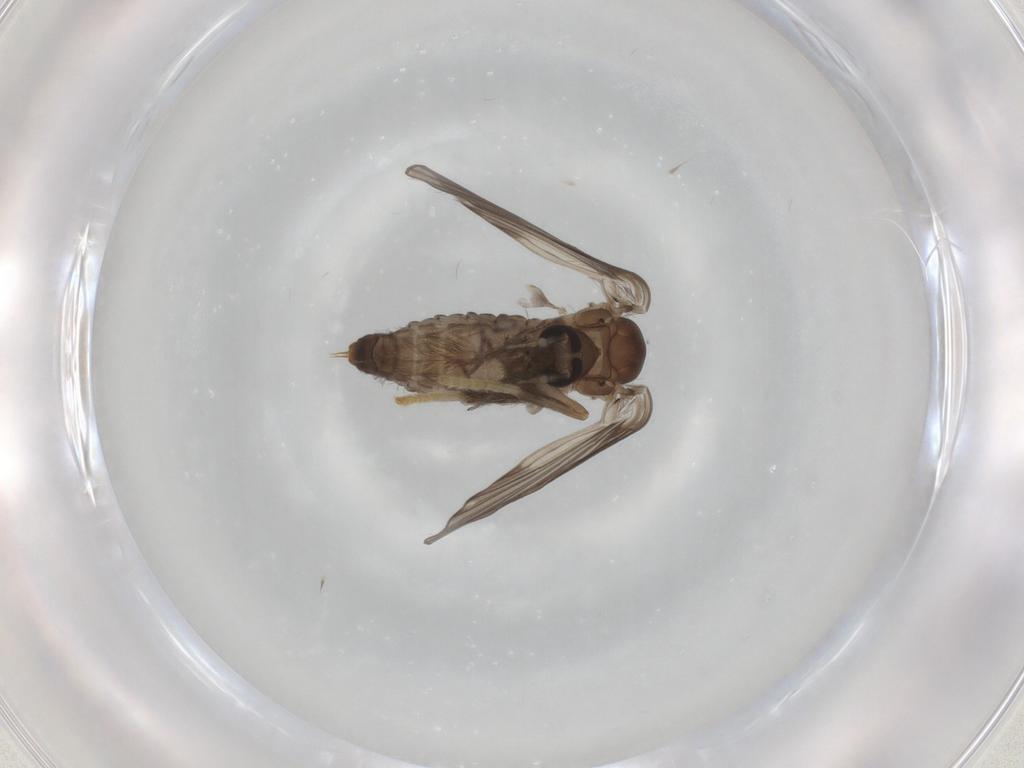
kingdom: Animalia
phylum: Arthropoda
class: Insecta
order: Diptera
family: Psychodidae
